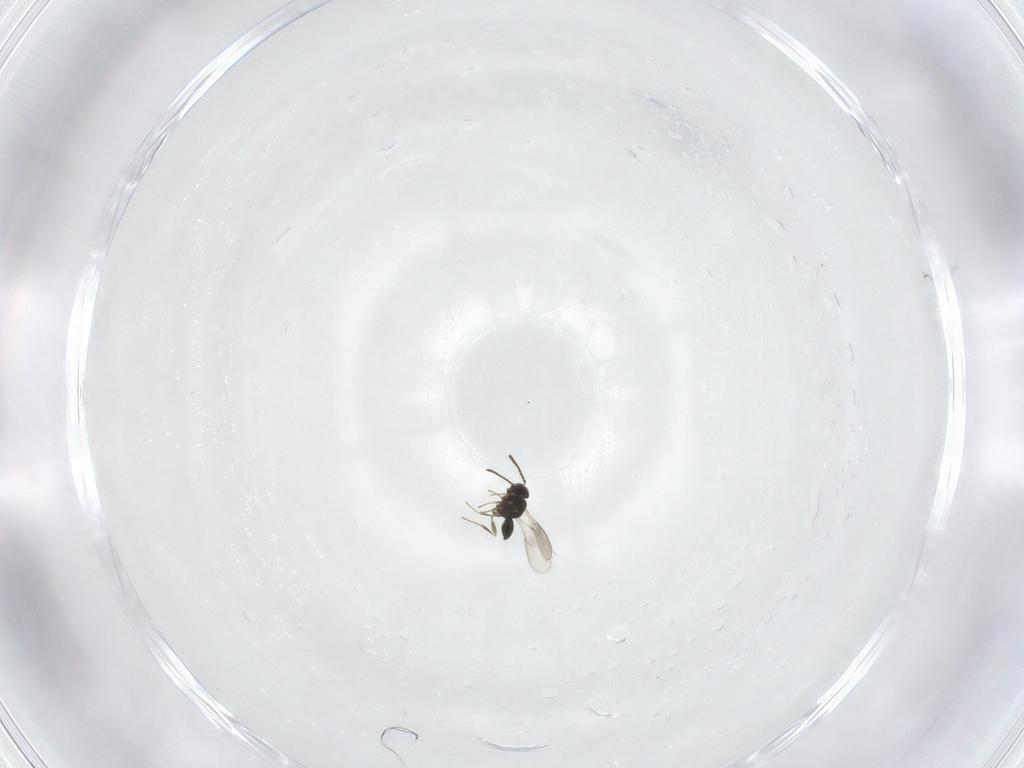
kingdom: Animalia
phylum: Arthropoda
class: Insecta
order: Hymenoptera
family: Scelionidae
